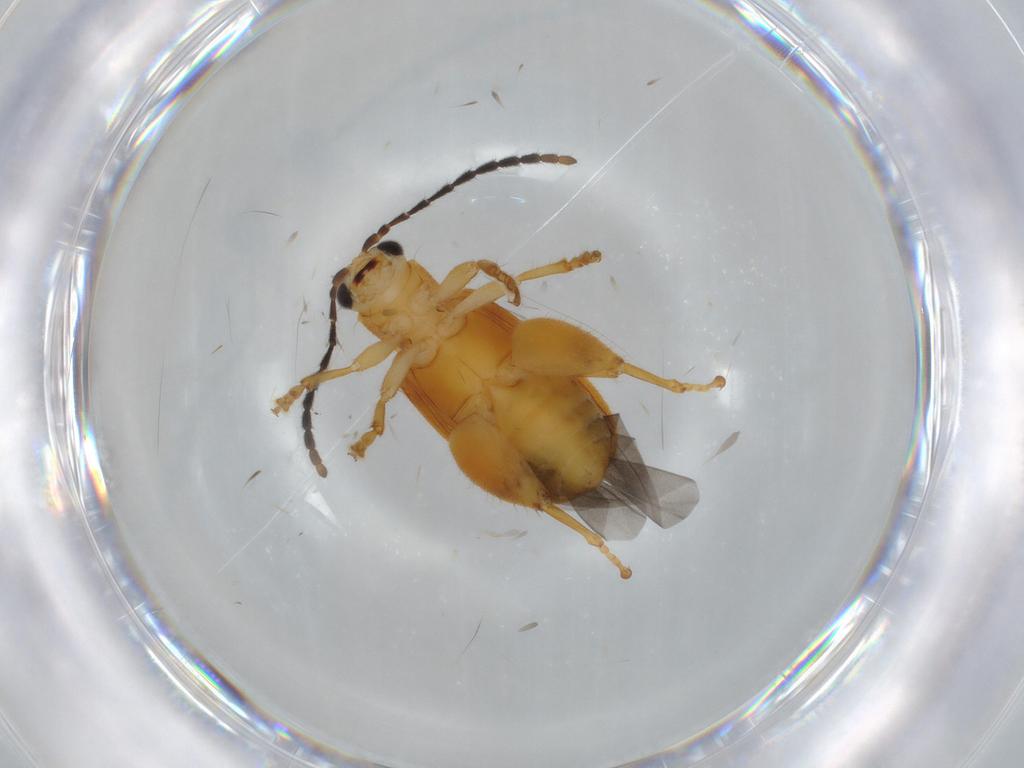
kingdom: Animalia
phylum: Arthropoda
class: Insecta
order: Coleoptera
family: Chrysomelidae
